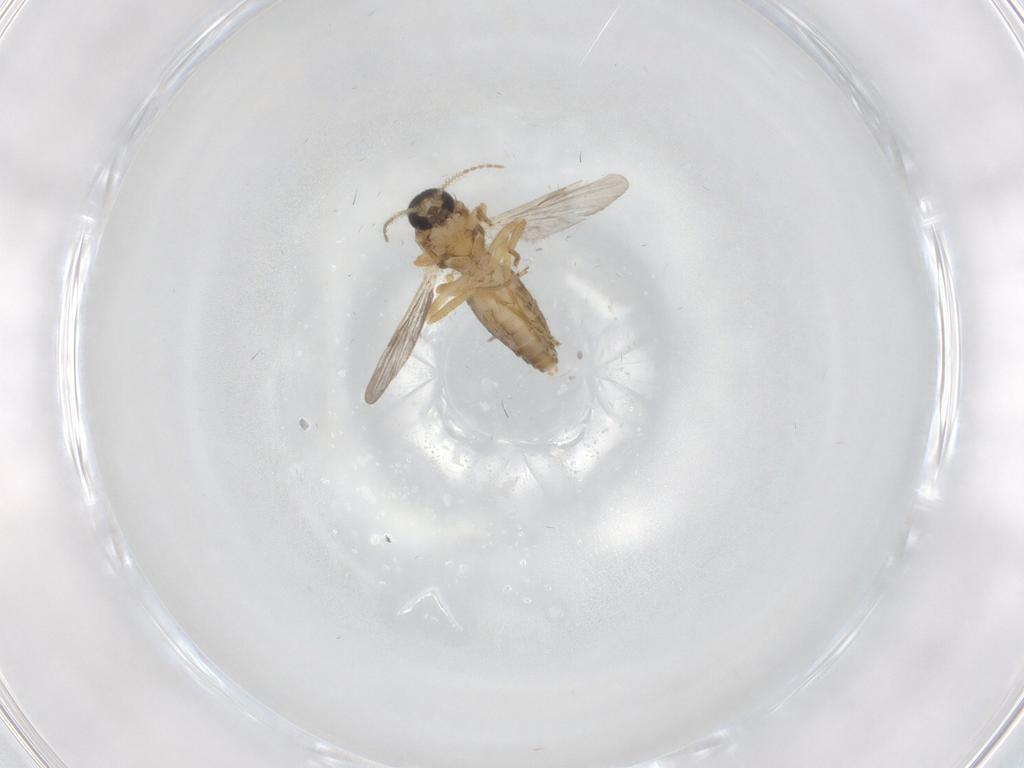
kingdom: Animalia
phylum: Arthropoda
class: Insecta
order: Diptera
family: Ceratopogonidae
